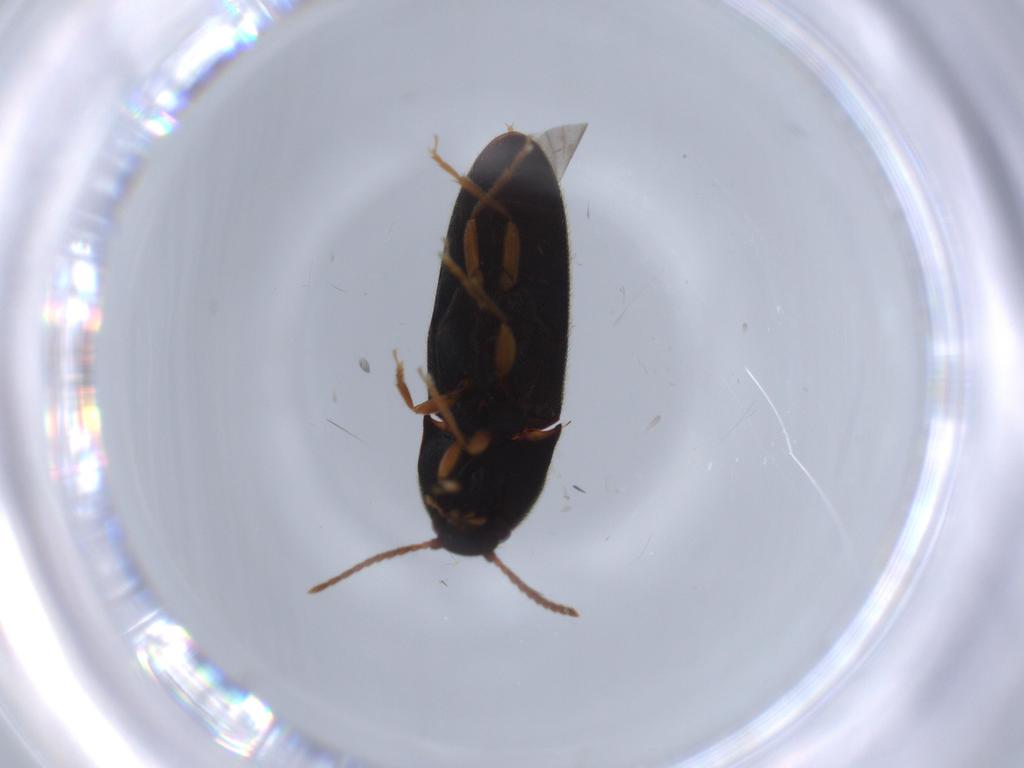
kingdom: Animalia
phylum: Arthropoda
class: Insecta
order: Coleoptera
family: Elateridae
